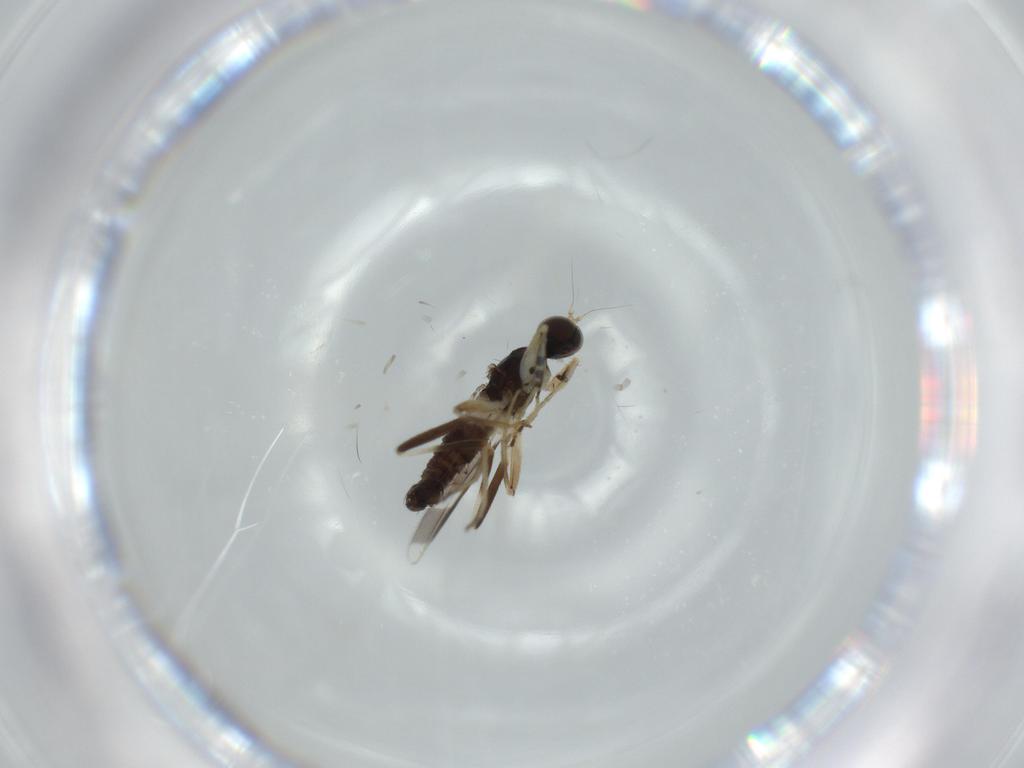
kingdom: Animalia
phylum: Arthropoda
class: Insecta
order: Diptera
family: Hybotidae
